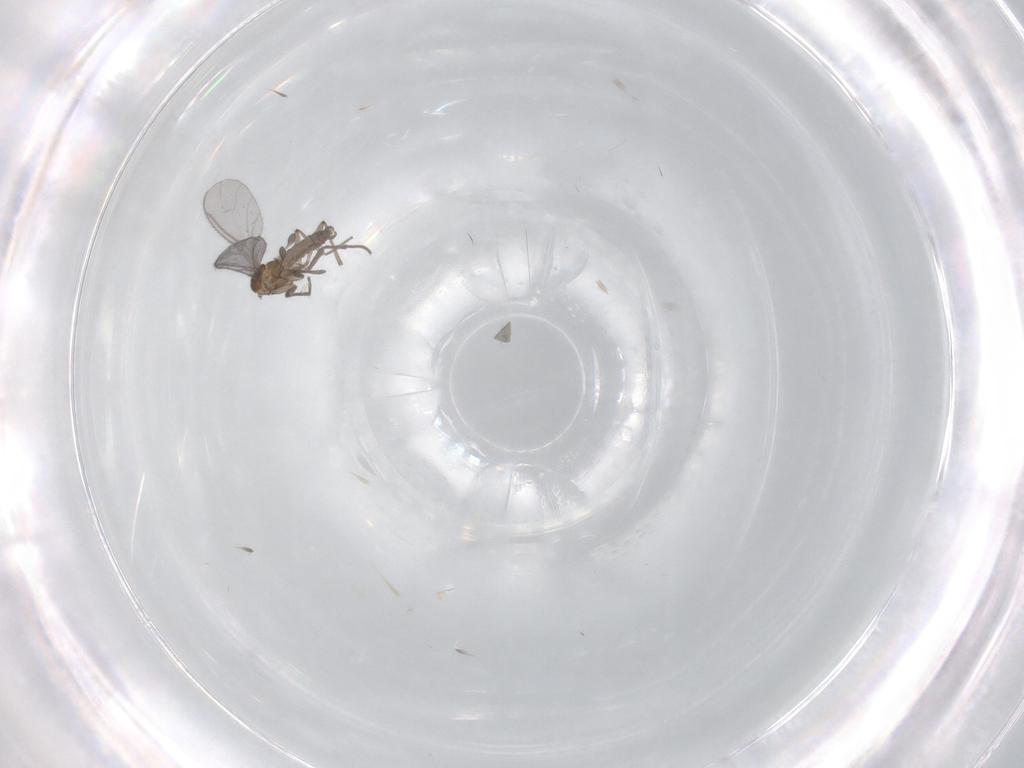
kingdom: Animalia
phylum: Arthropoda
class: Insecta
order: Diptera
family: Sciaridae
